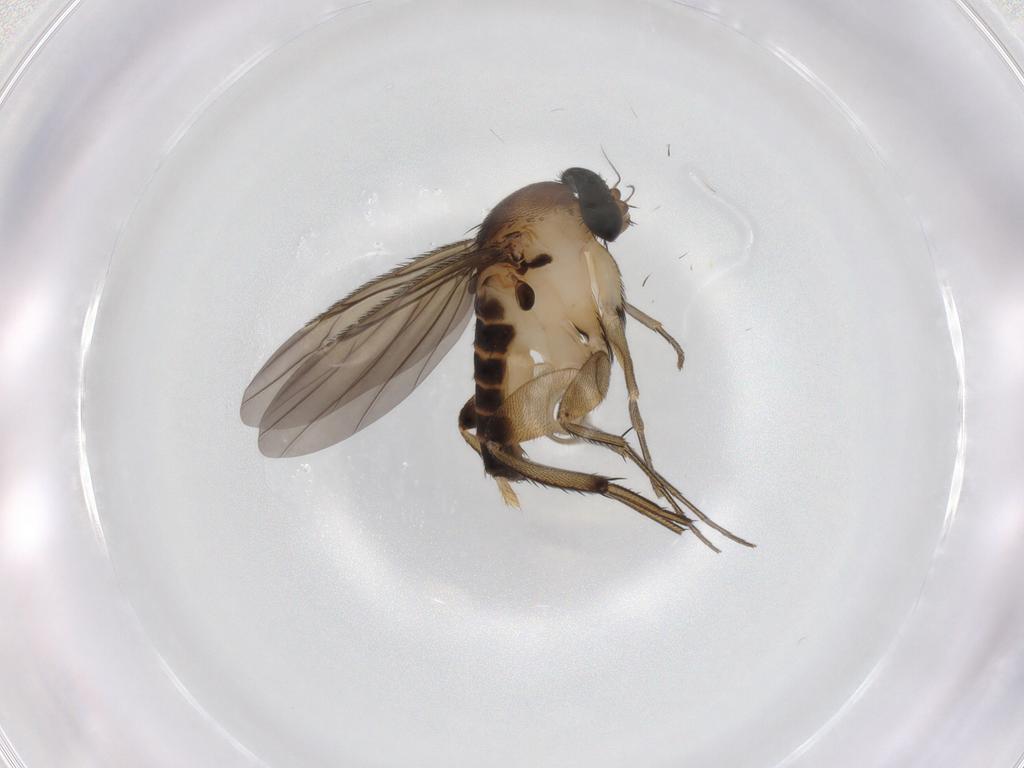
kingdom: Animalia
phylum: Arthropoda
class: Insecta
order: Diptera
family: Phoridae
